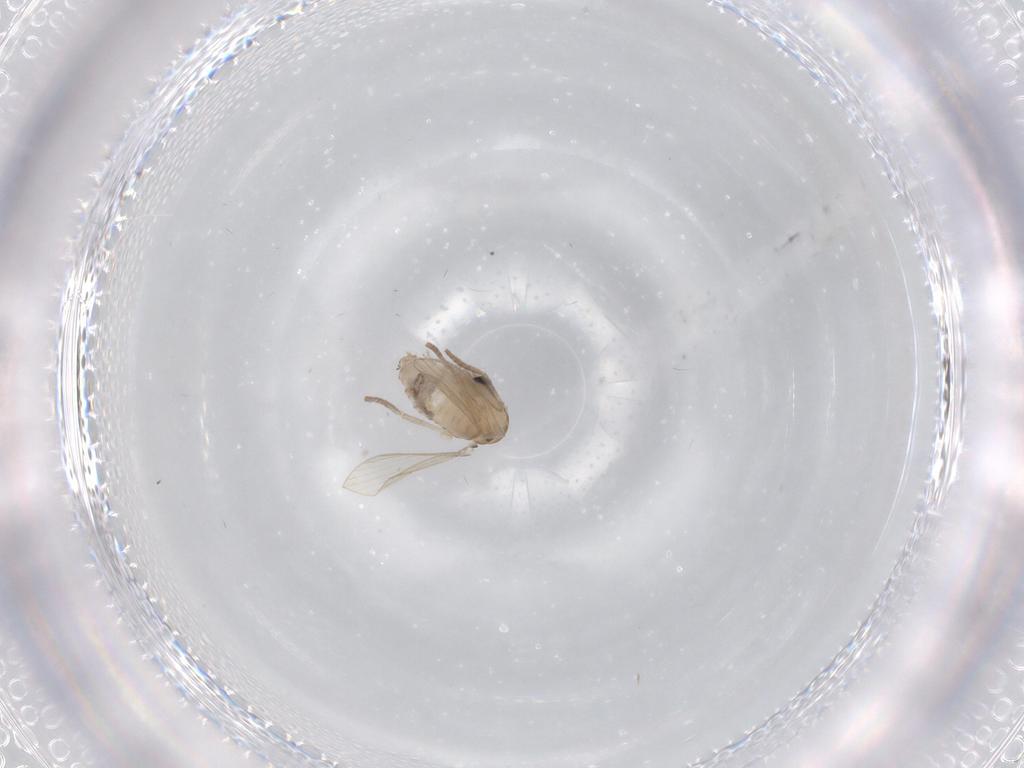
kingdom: Animalia
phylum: Arthropoda
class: Insecta
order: Diptera
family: Psychodidae
